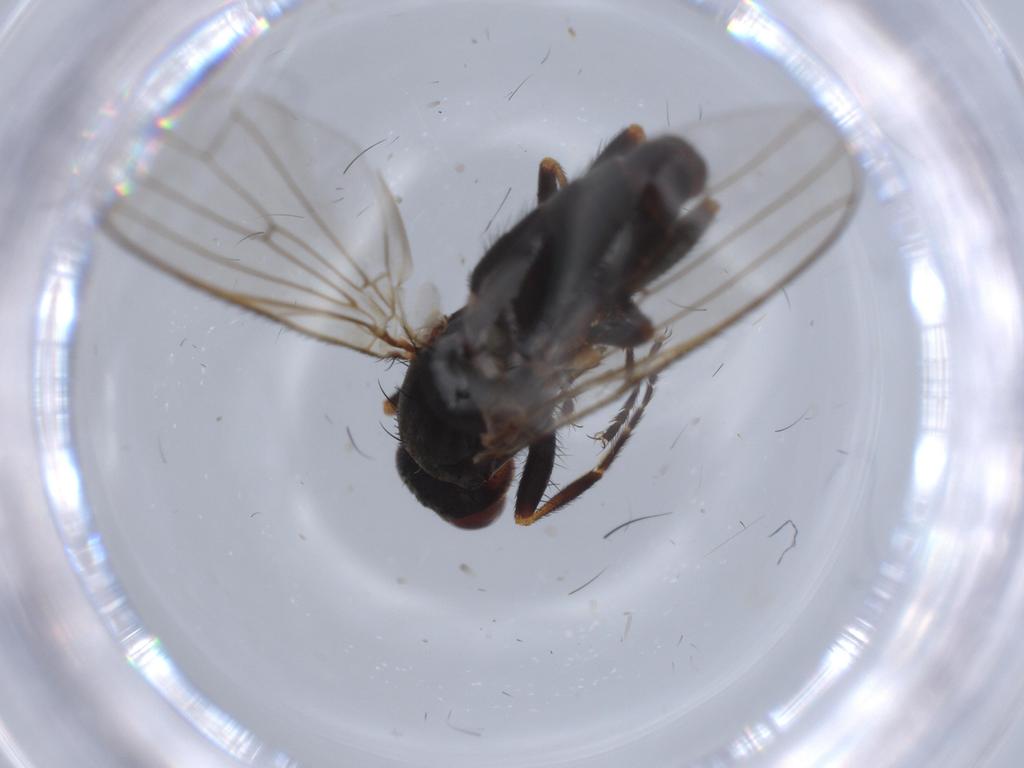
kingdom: Animalia
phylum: Arthropoda
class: Insecta
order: Diptera
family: Heleomyzidae
